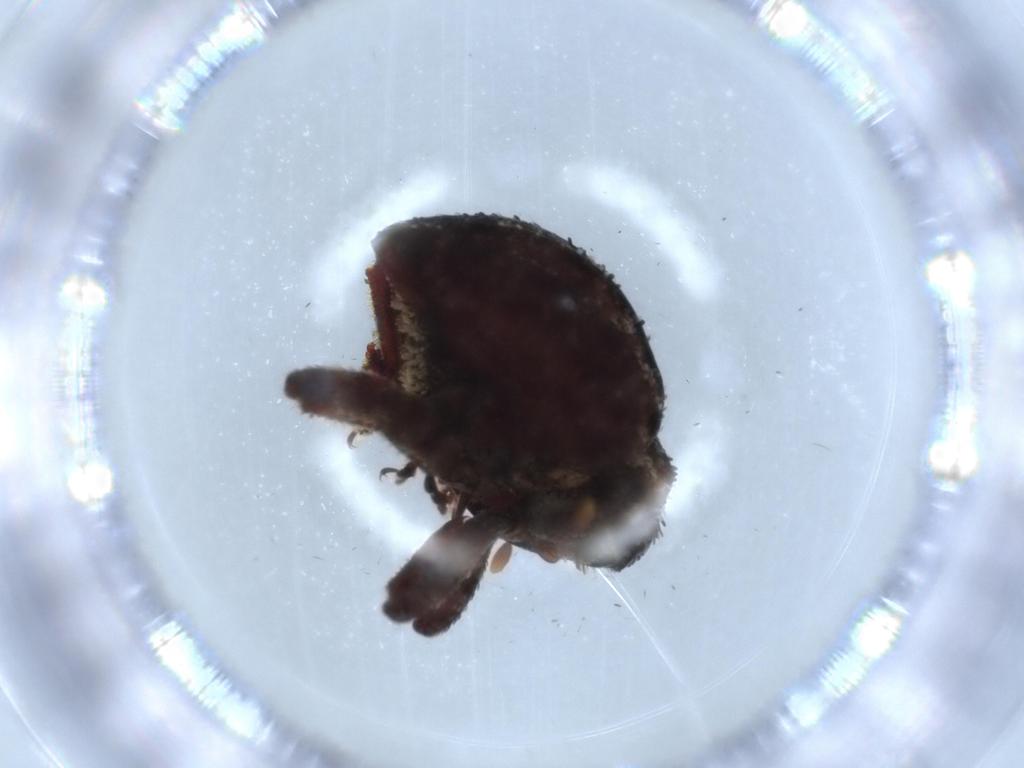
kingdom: Animalia
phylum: Arthropoda
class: Insecta
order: Coleoptera
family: Curculionidae
